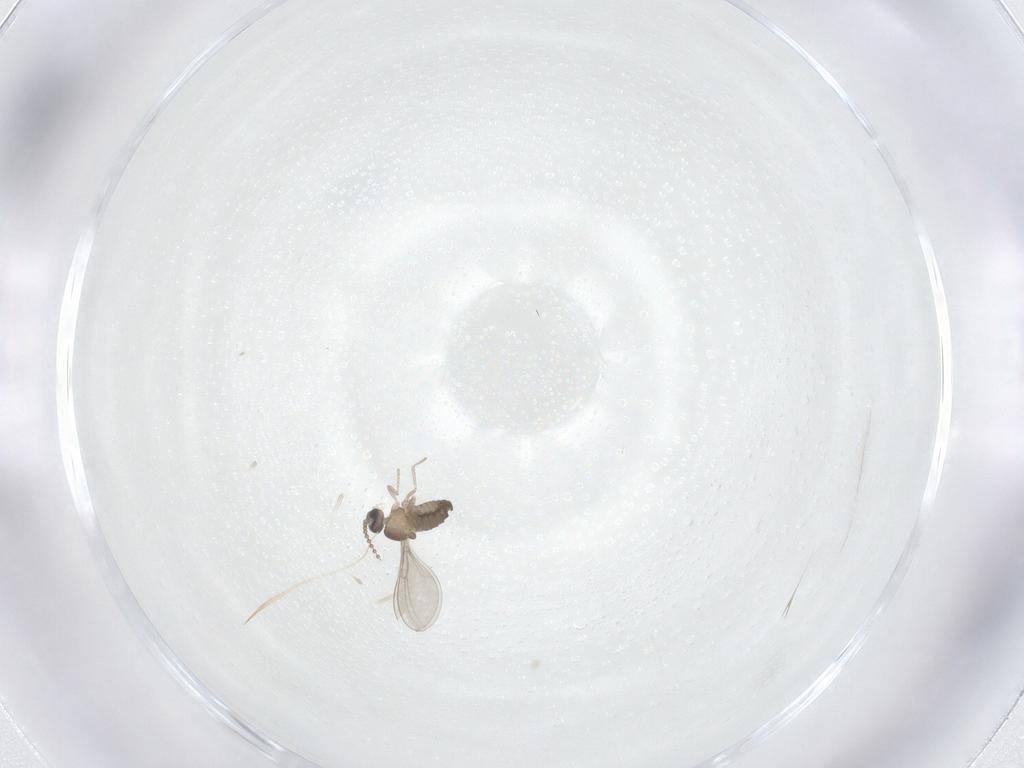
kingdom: Animalia
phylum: Arthropoda
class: Insecta
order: Diptera
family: Cecidomyiidae
